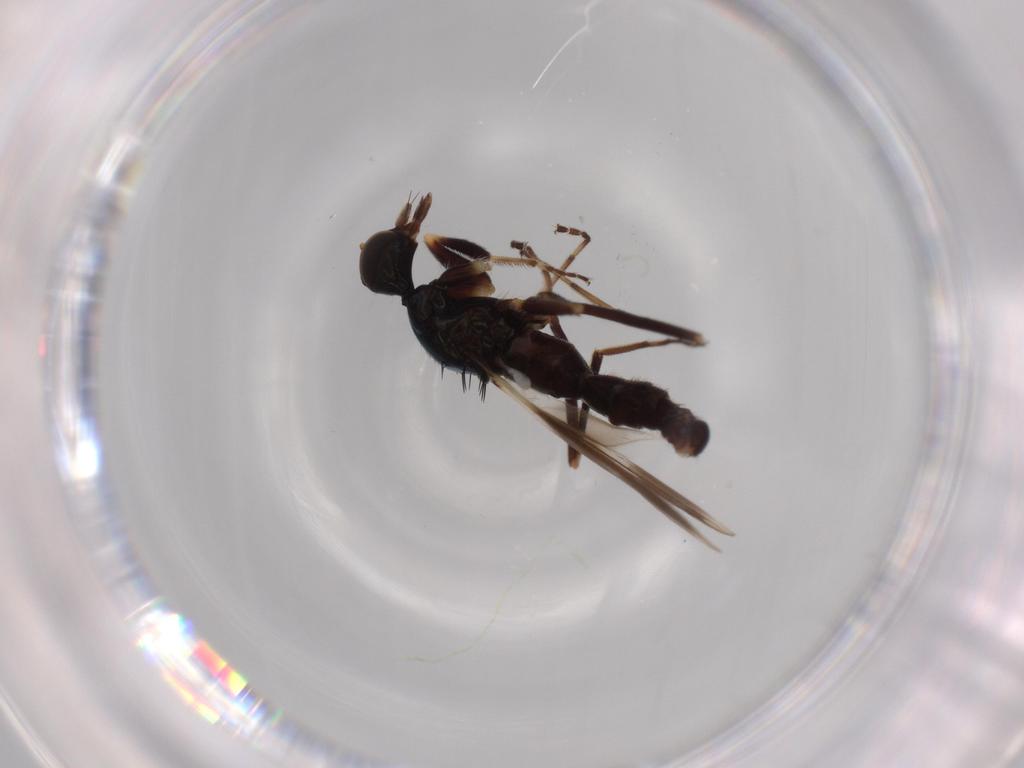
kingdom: Animalia
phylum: Arthropoda
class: Insecta
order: Diptera
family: Hybotidae
